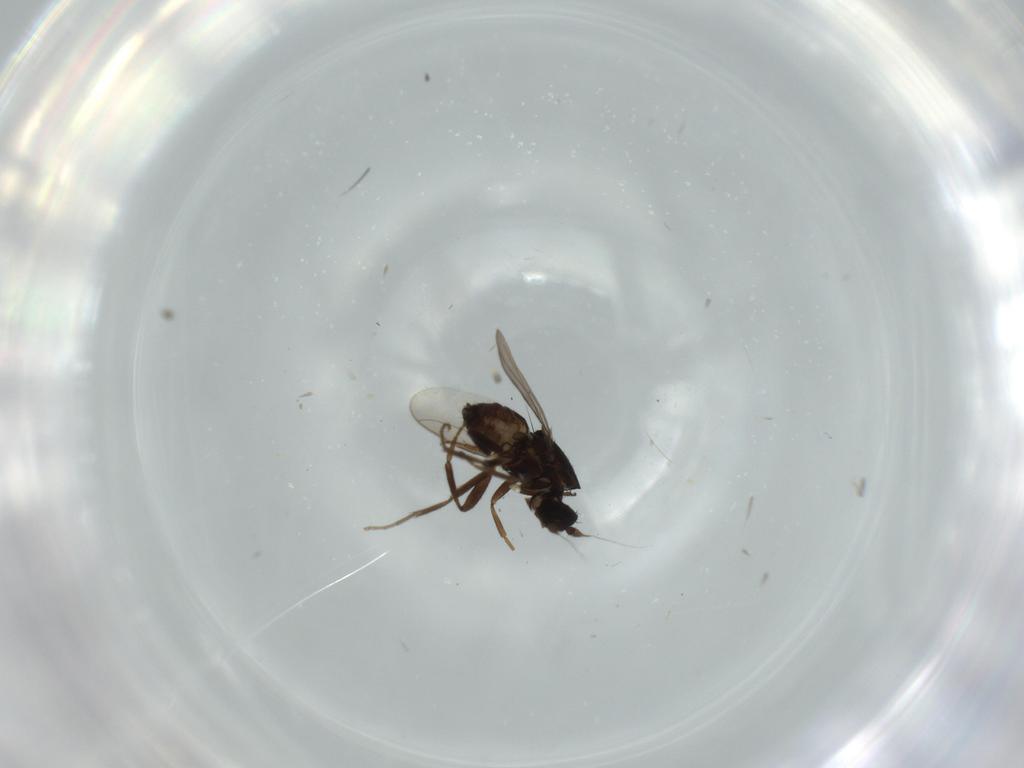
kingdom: Animalia
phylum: Arthropoda
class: Insecta
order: Diptera
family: Sphaeroceridae
